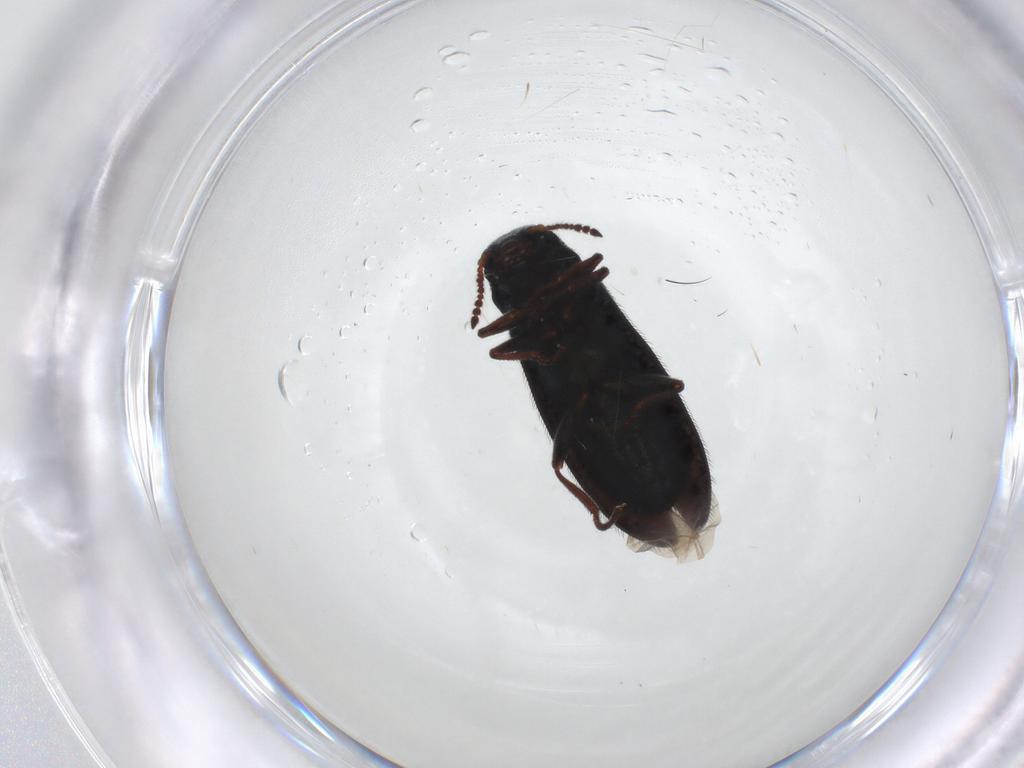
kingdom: Animalia
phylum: Arthropoda
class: Insecta
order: Coleoptera
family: Melyridae
